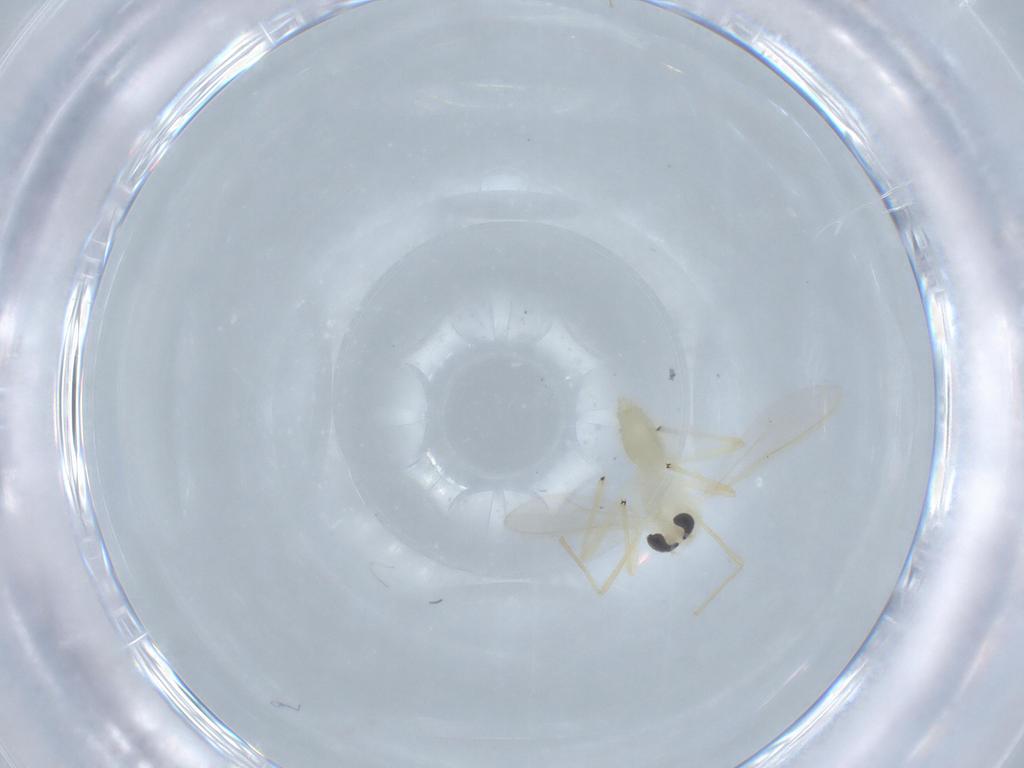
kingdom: Animalia
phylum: Arthropoda
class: Insecta
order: Diptera
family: Chironomidae
